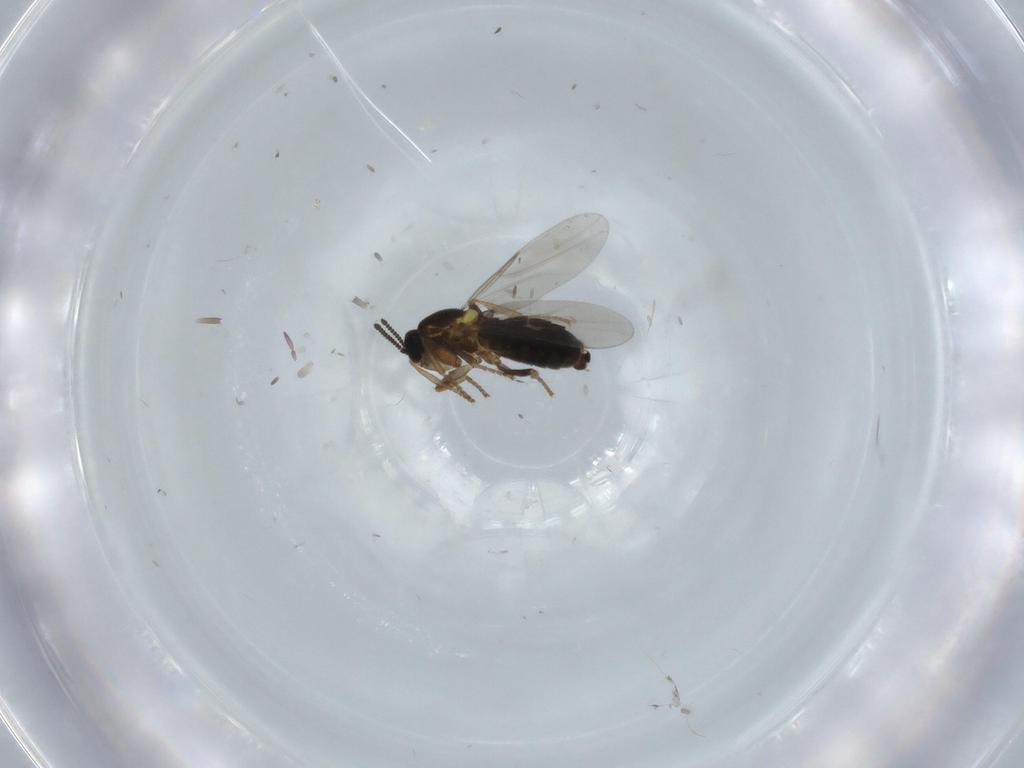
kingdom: Animalia
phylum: Arthropoda
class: Insecta
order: Diptera
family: Scatopsidae
